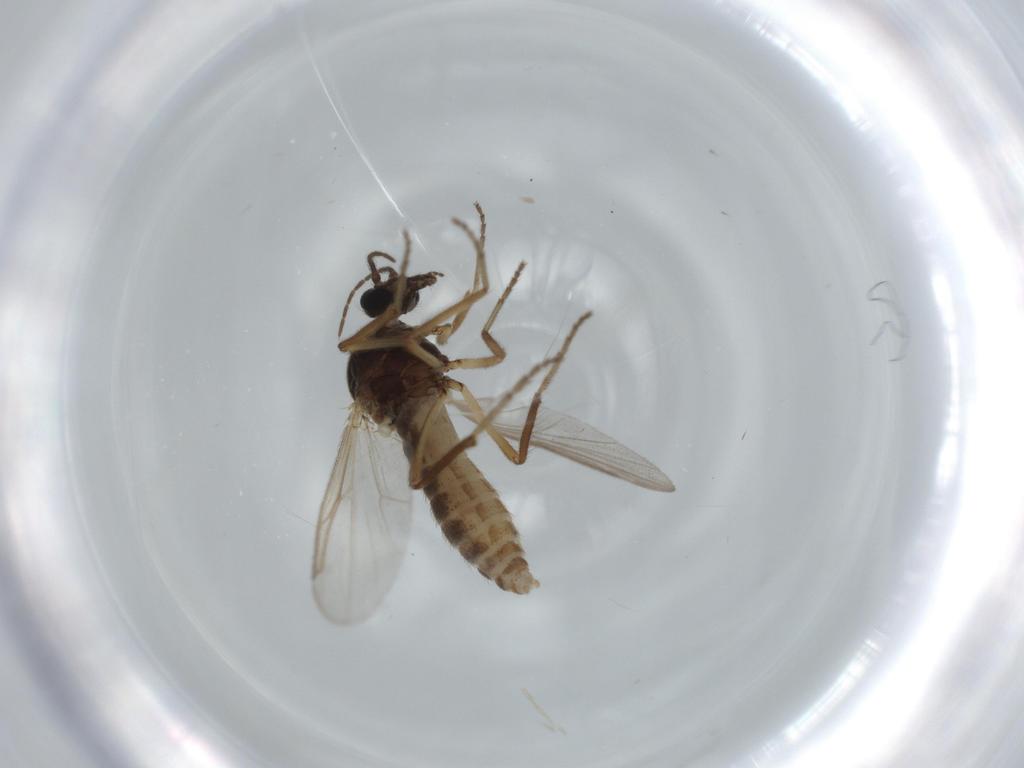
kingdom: Animalia
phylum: Arthropoda
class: Insecta
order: Diptera
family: Ceratopogonidae
